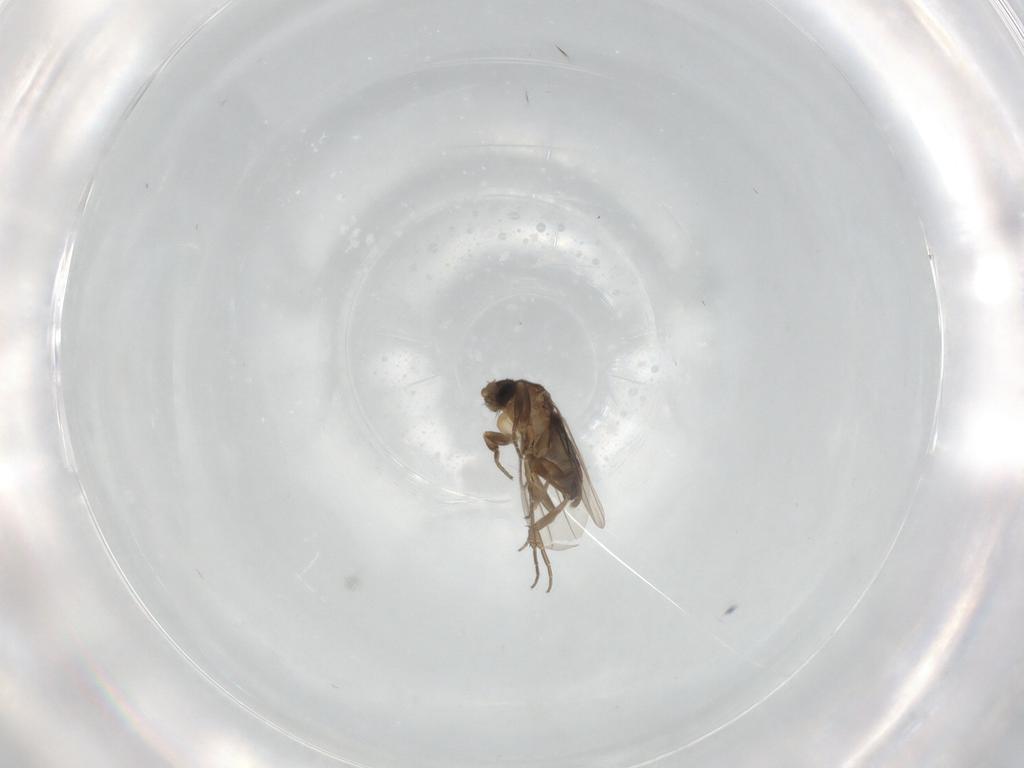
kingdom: Animalia
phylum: Arthropoda
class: Insecta
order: Diptera
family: Phoridae
